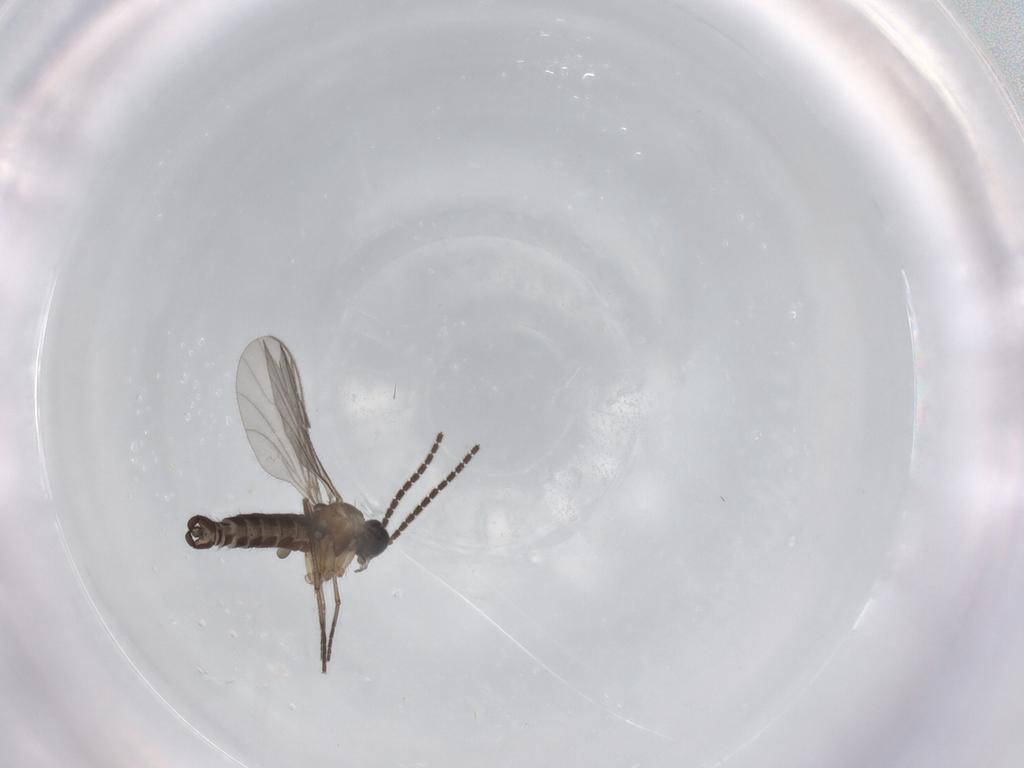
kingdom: Animalia
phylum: Arthropoda
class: Insecta
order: Diptera
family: Sciaridae
